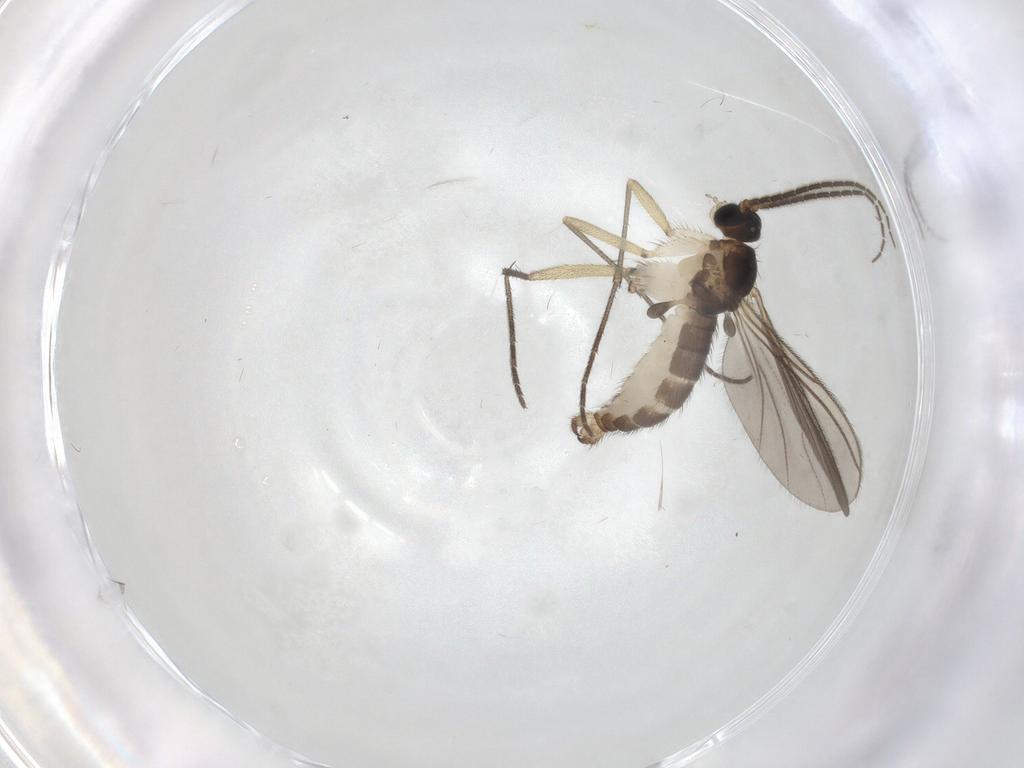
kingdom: Animalia
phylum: Arthropoda
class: Insecta
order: Diptera
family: Sciaridae
